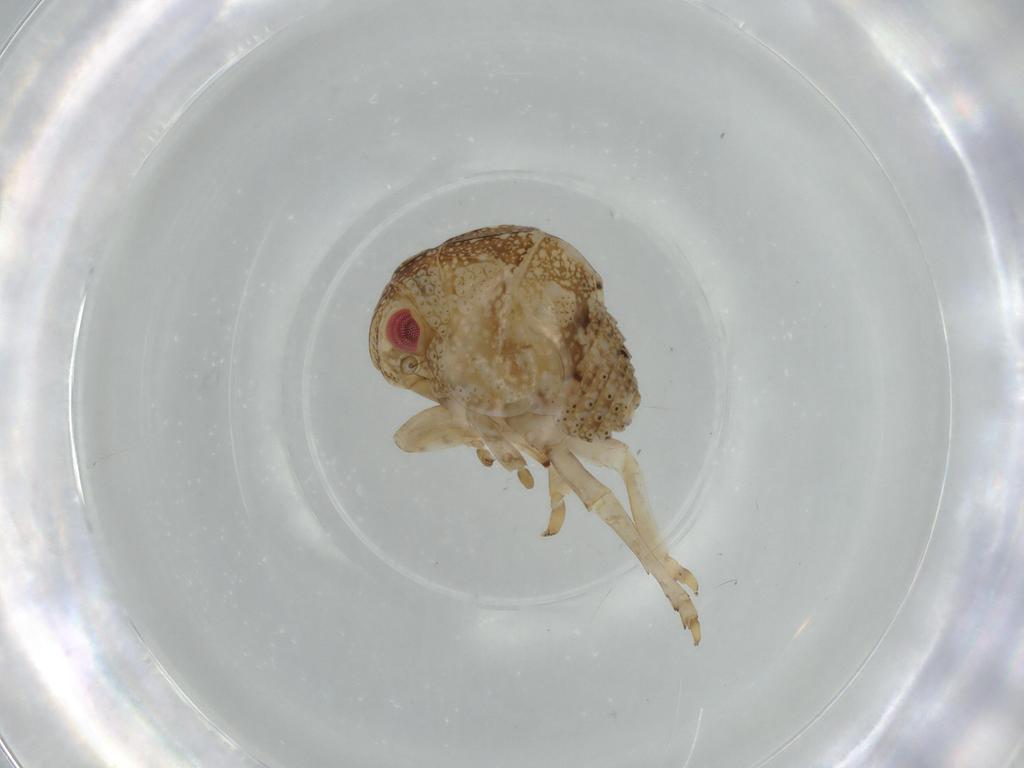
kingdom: Animalia
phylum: Arthropoda
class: Insecta
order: Hemiptera
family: Acanaloniidae
